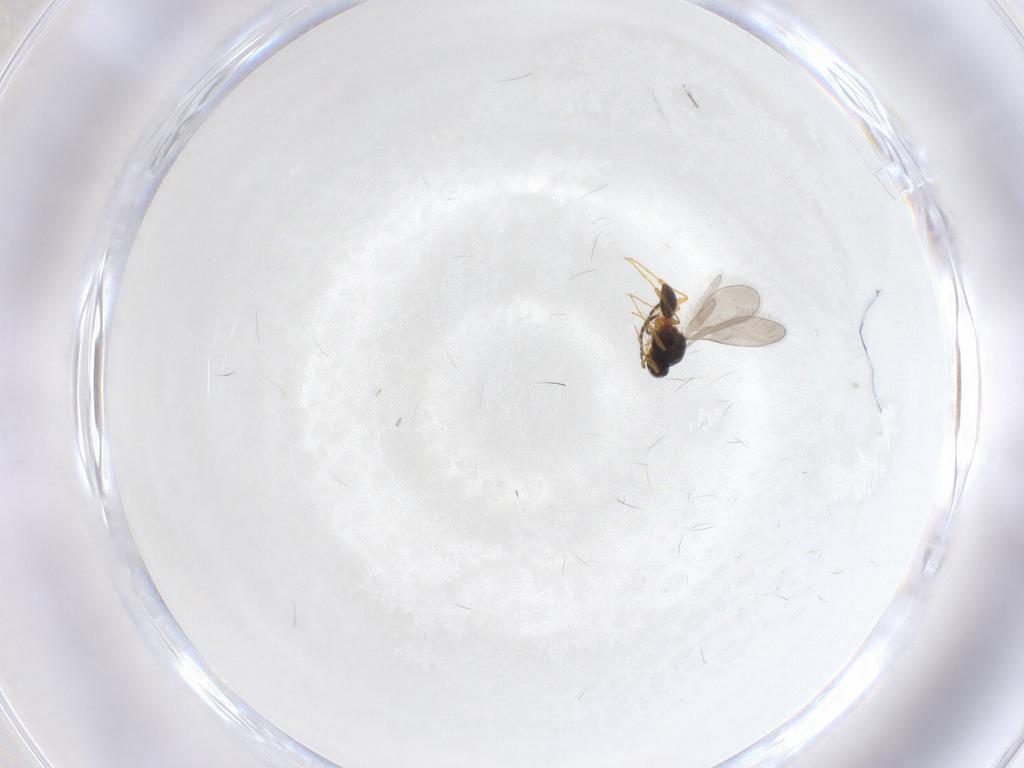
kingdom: Animalia
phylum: Arthropoda
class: Insecta
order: Hymenoptera
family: Platygastridae
